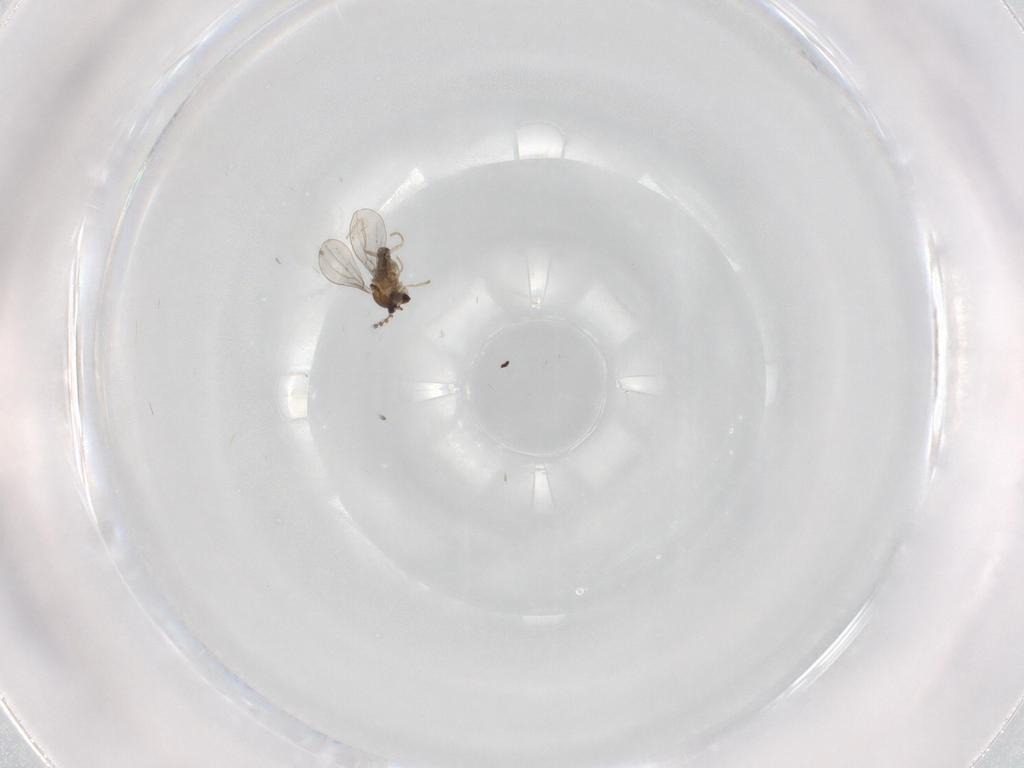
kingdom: Animalia
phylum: Arthropoda
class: Insecta
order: Diptera
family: Cecidomyiidae
